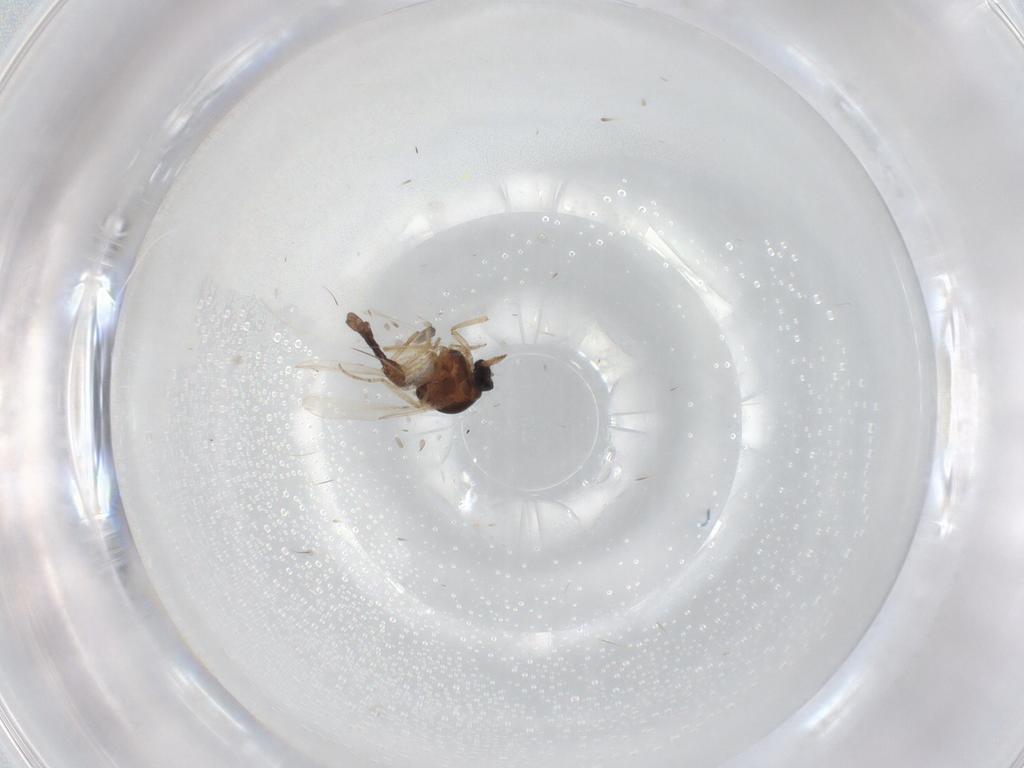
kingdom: Animalia
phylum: Arthropoda
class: Insecta
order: Diptera
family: Ceratopogonidae
